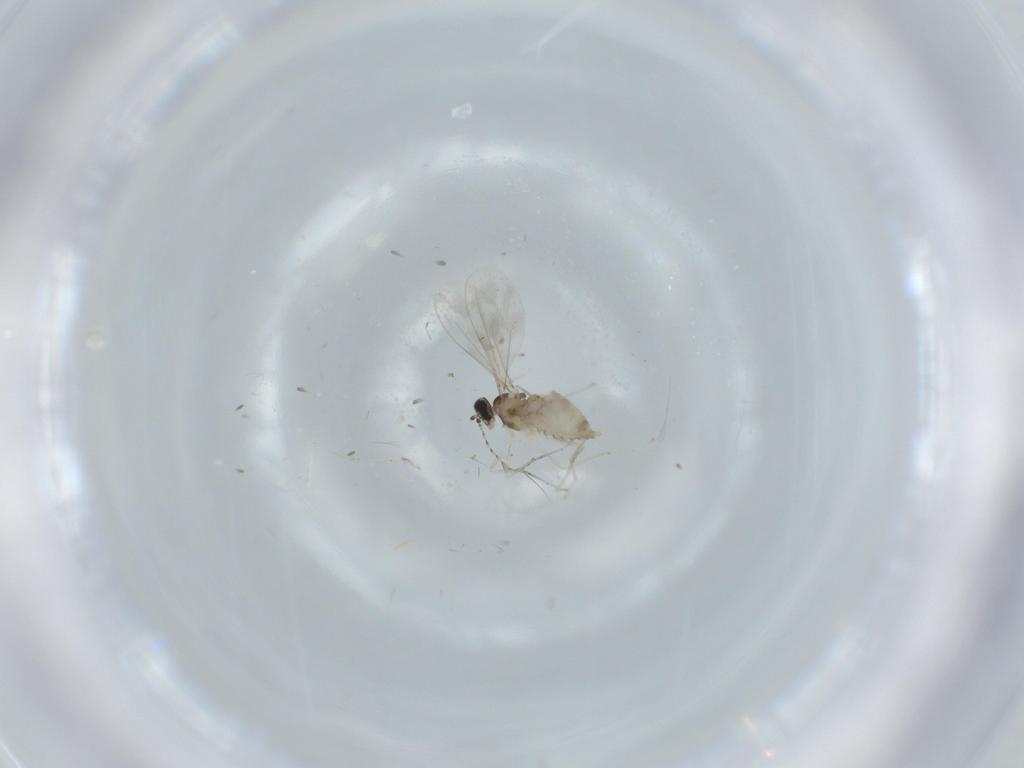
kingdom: Animalia
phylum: Arthropoda
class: Insecta
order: Diptera
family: Cecidomyiidae
